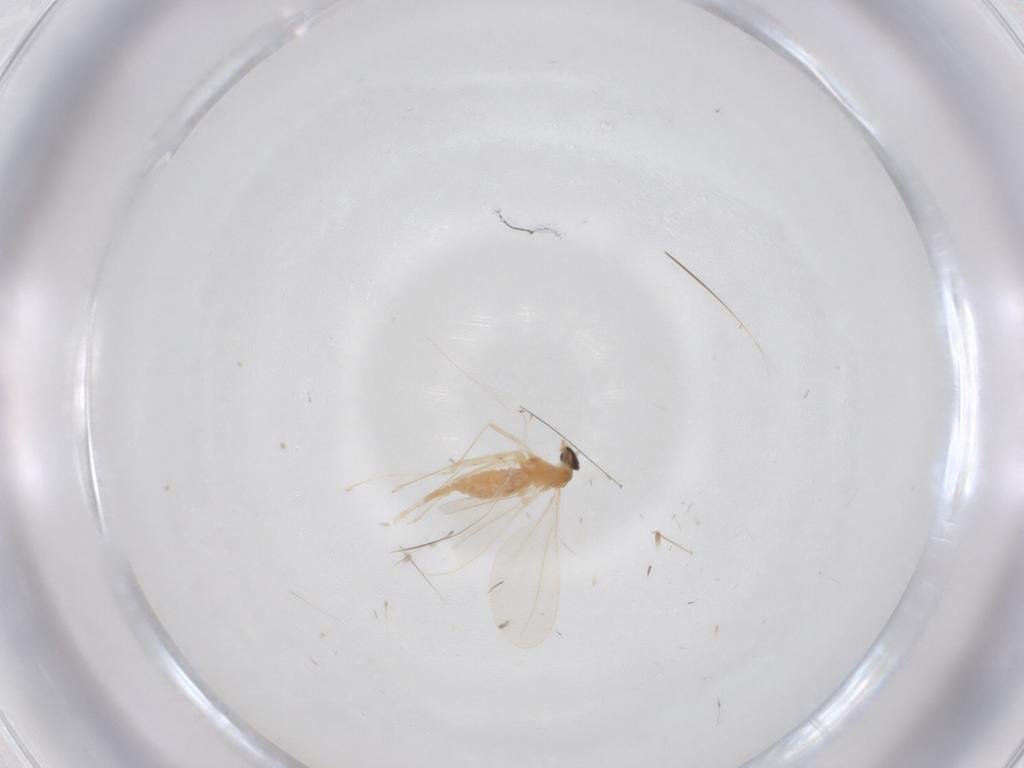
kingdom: Animalia
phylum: Arthropoda
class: Insecta
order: Diptera
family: Cecidomyiidae
